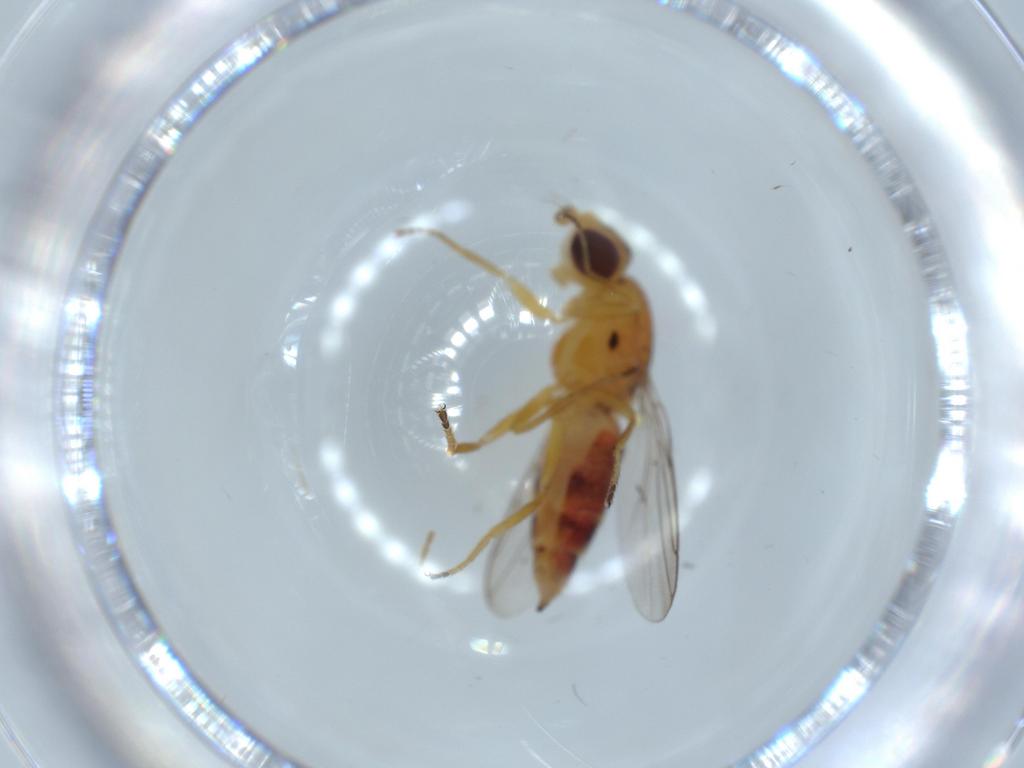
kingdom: Animalia
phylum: Arthropoda
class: Insecta
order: Diptera
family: Chloropidae
